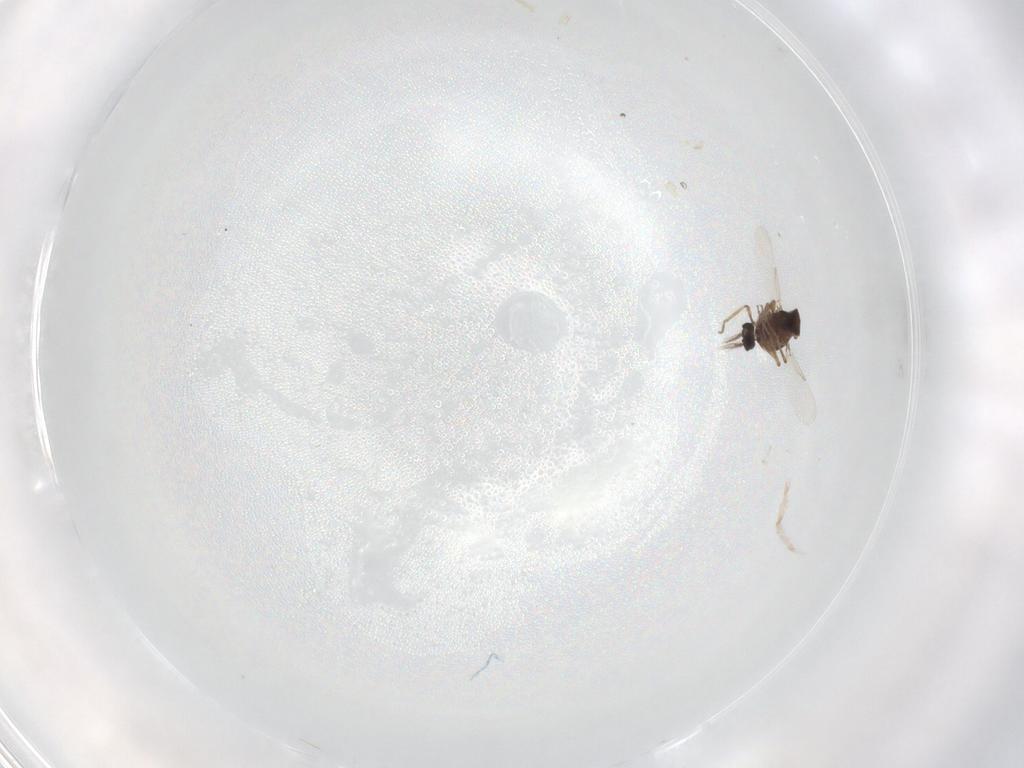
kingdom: Animalia
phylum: Arthropoda
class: Insecta
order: Diptera
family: Ceratopogonidae
